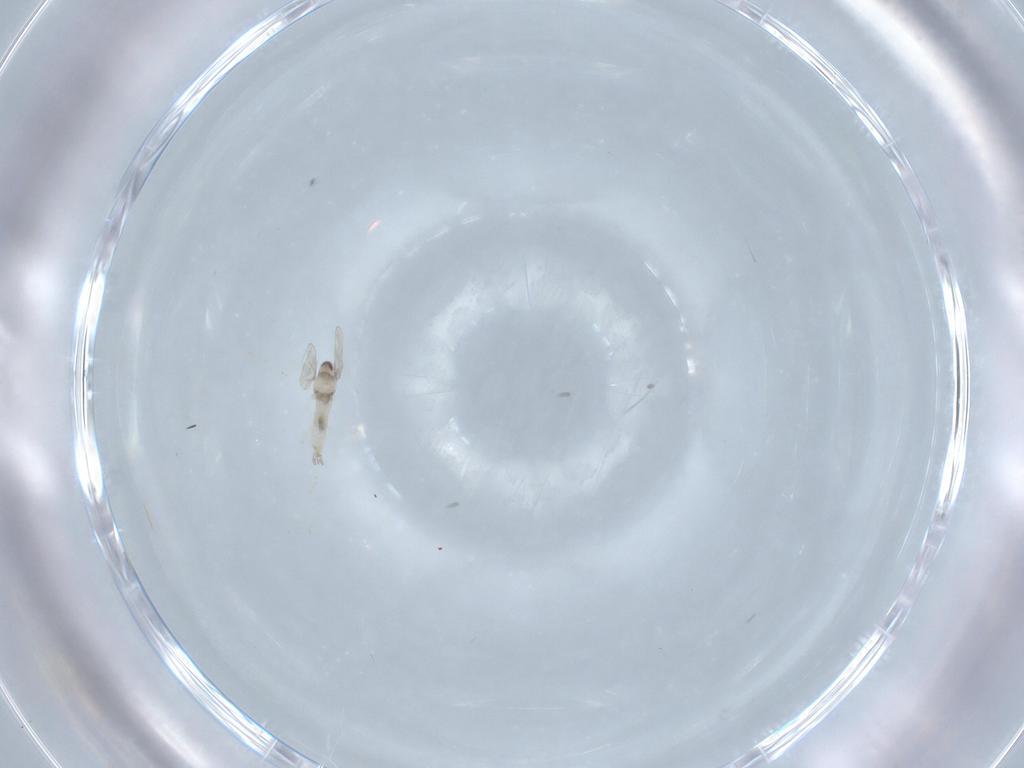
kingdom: Animalia
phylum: Arthropoda
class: Insecta
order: Diptera
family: Cecidomyiidae
